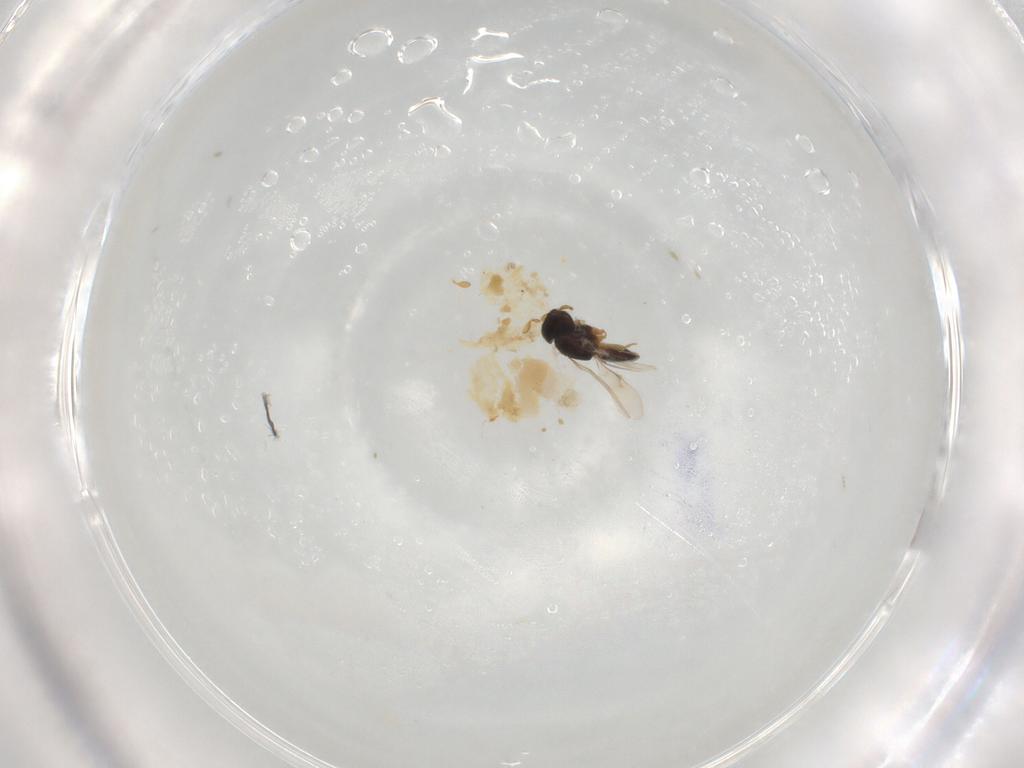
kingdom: Animalia
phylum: Arthropoda
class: Insecta
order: Hymenoptera
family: Scelionidae
